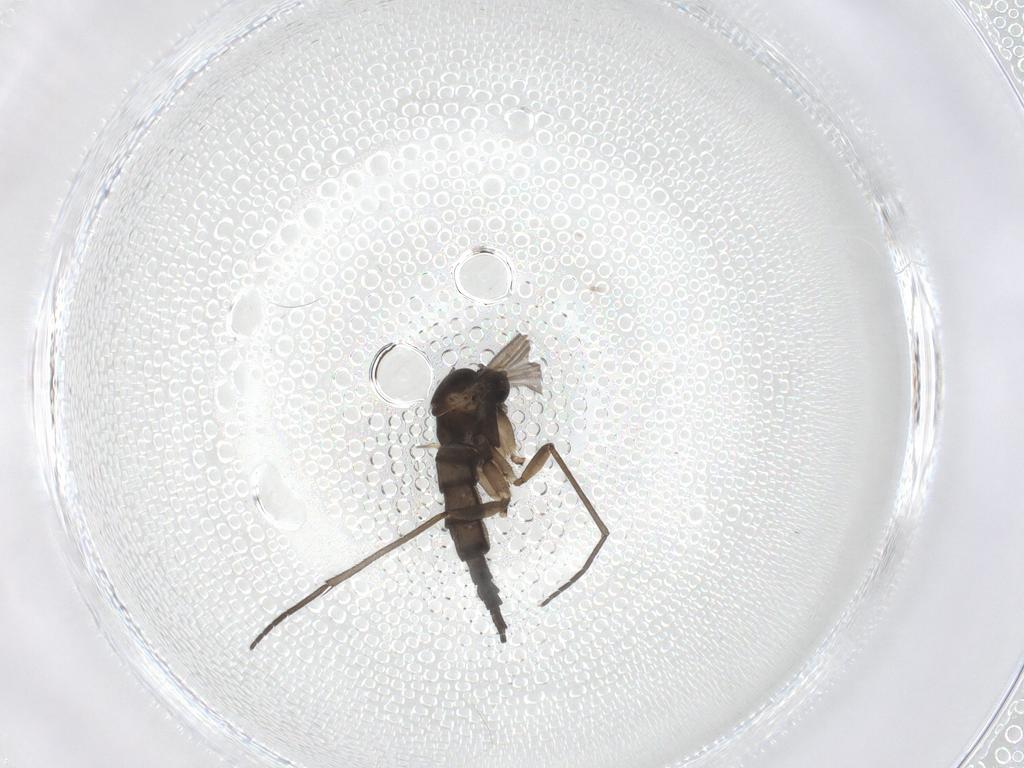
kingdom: Animalia
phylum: Arthropoda
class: Insecta
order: Diptera
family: Sciaridae
